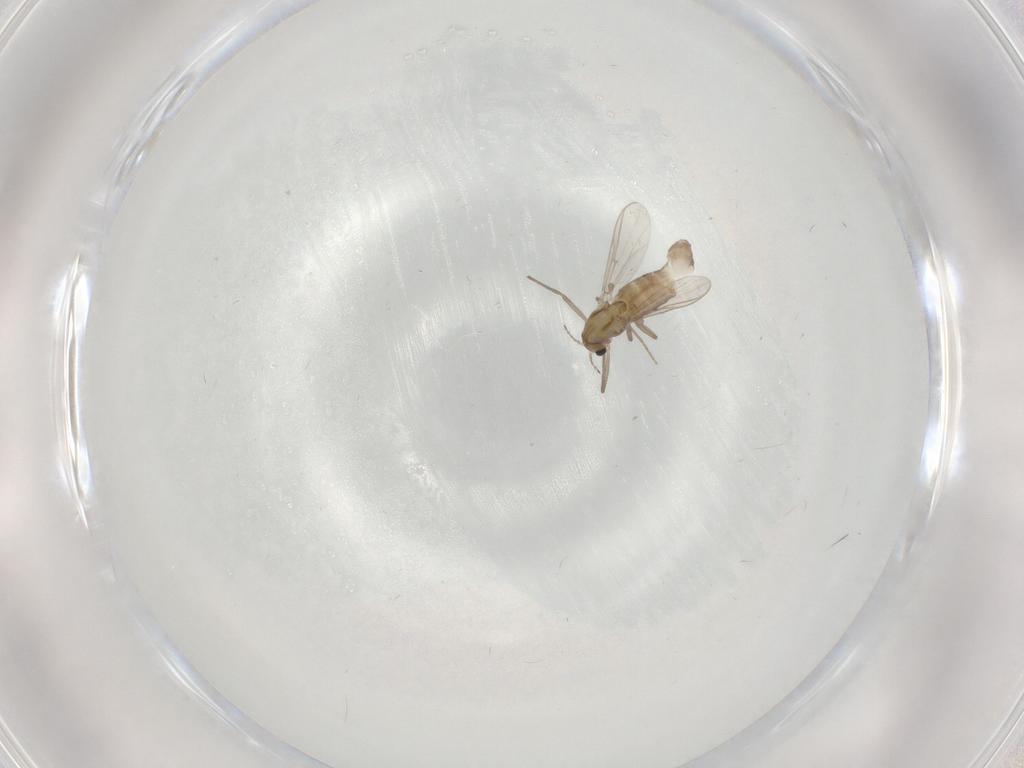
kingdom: Animalia
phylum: Arthropoda
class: Insecta
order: Diptera
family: Chironomidae
